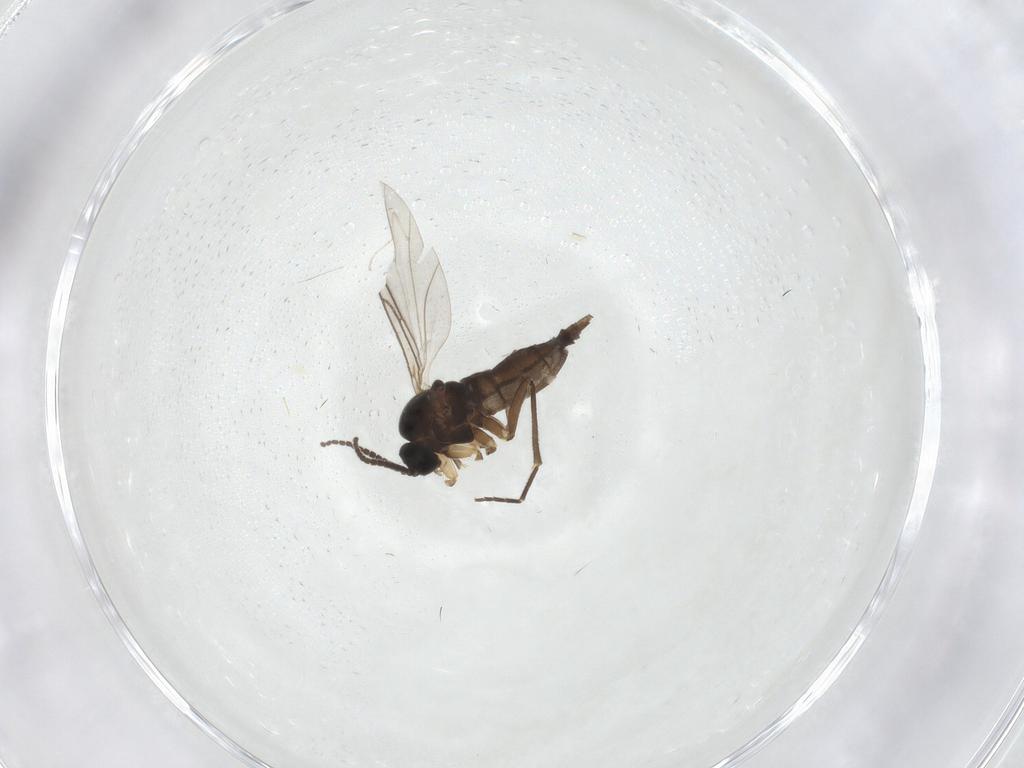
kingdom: Animalia
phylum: Arthropoda
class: Insecta
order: Diptera
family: Cecidomyiidae
